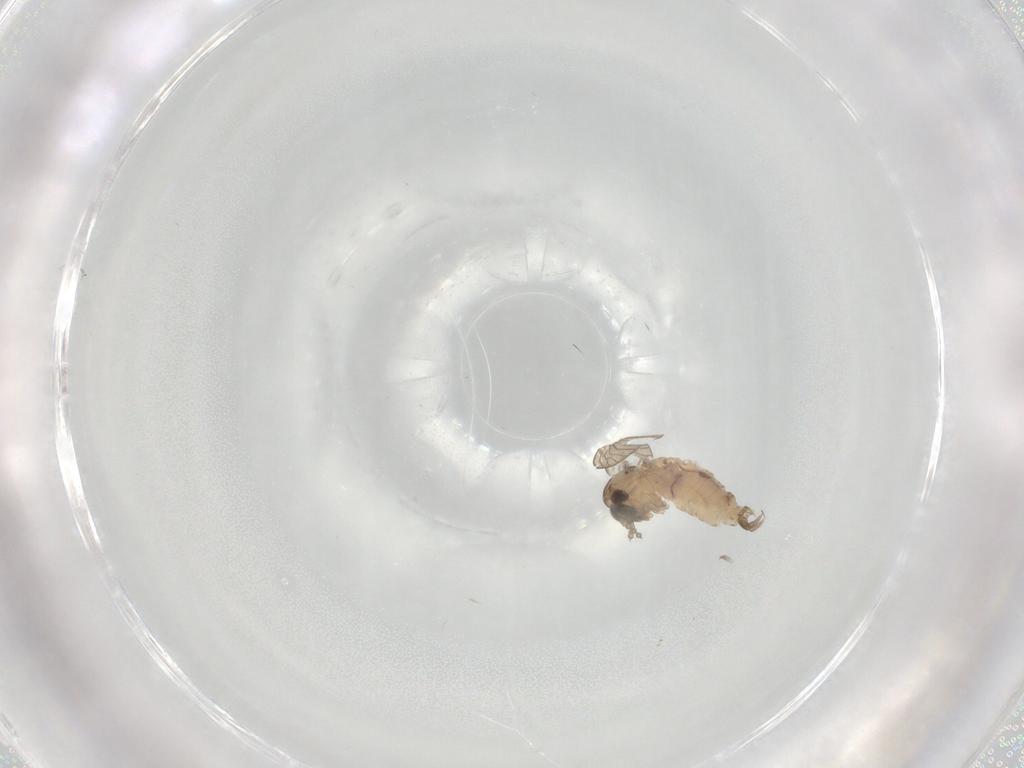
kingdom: Animalia
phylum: Arthropoda
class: Insecta
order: Diptera
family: Psychodidae
